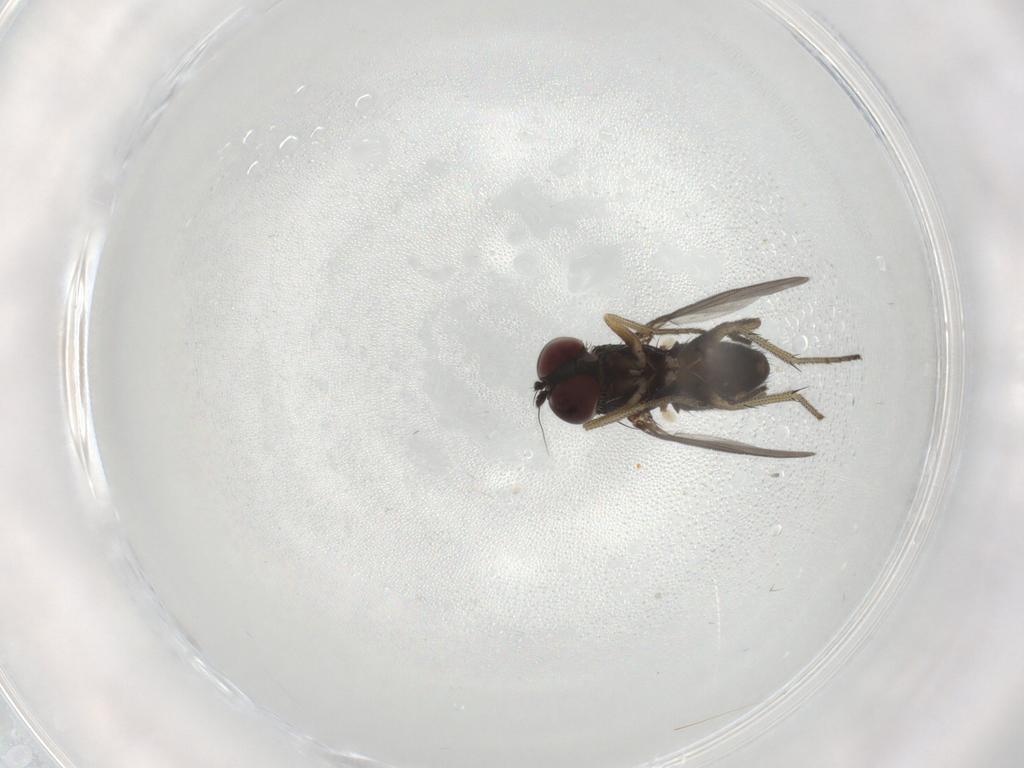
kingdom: Animalia
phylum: Arthropoda
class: Insecta
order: Diptera
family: Dolichopodidae
